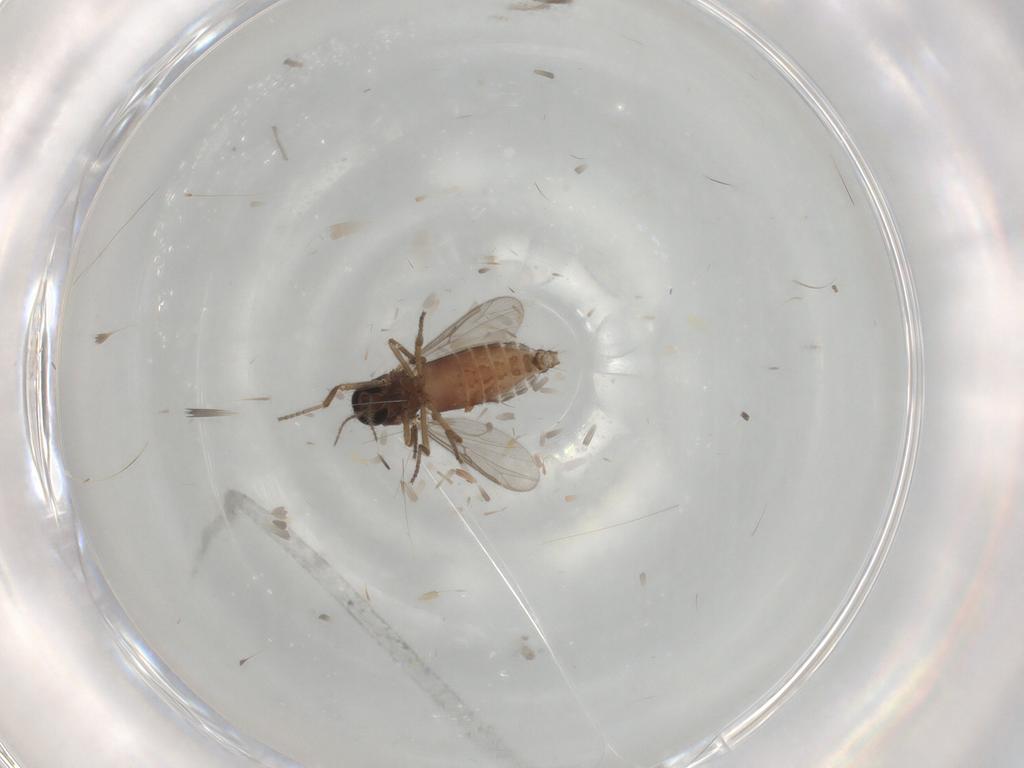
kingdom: Animalia
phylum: Arthropoda
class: Insecta
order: Diptera
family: Ceratopogonidae
